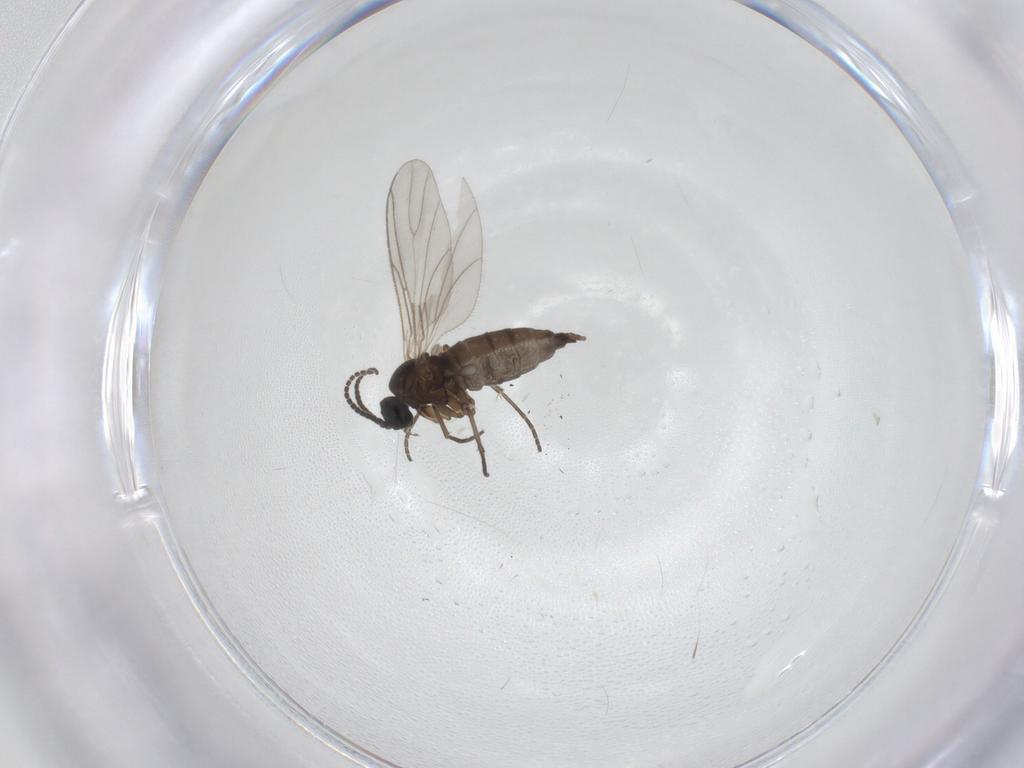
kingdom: Animalia
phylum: Arthropoda
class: Insecta
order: Diptera
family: Sciaridae
